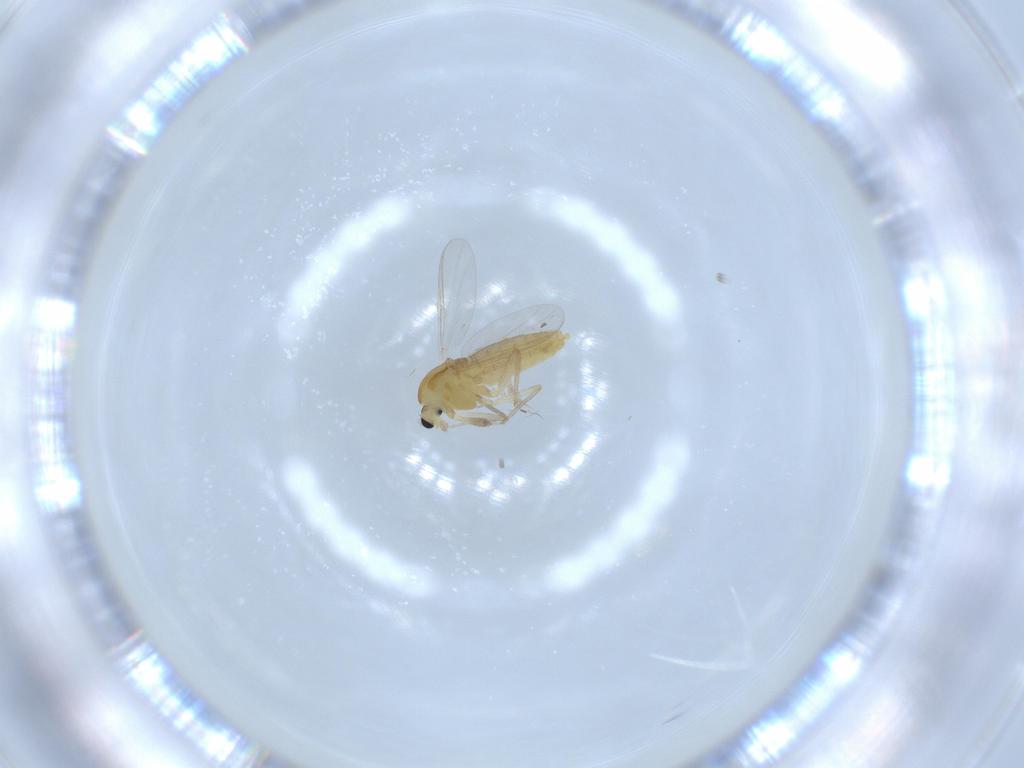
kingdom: Animalia
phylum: Arthropoda
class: Insecta
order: Diptera
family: Chironomidae
